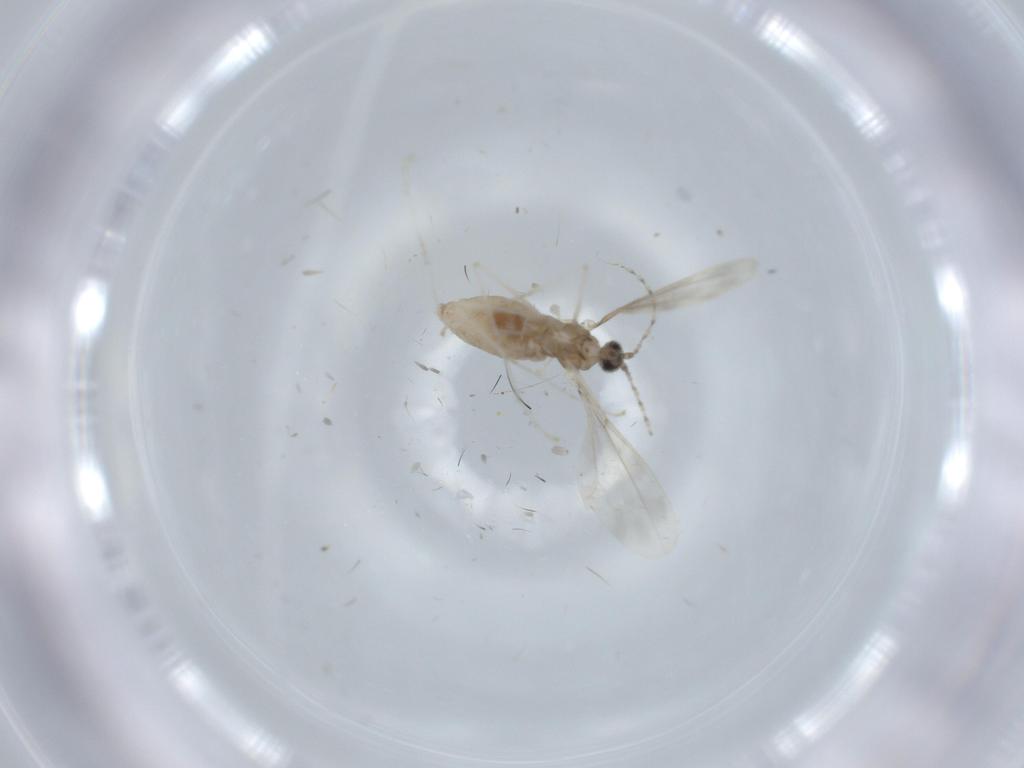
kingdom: Animalia
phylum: Arthropoda
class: Insecta
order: Diptera
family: Cecidomyiidae
